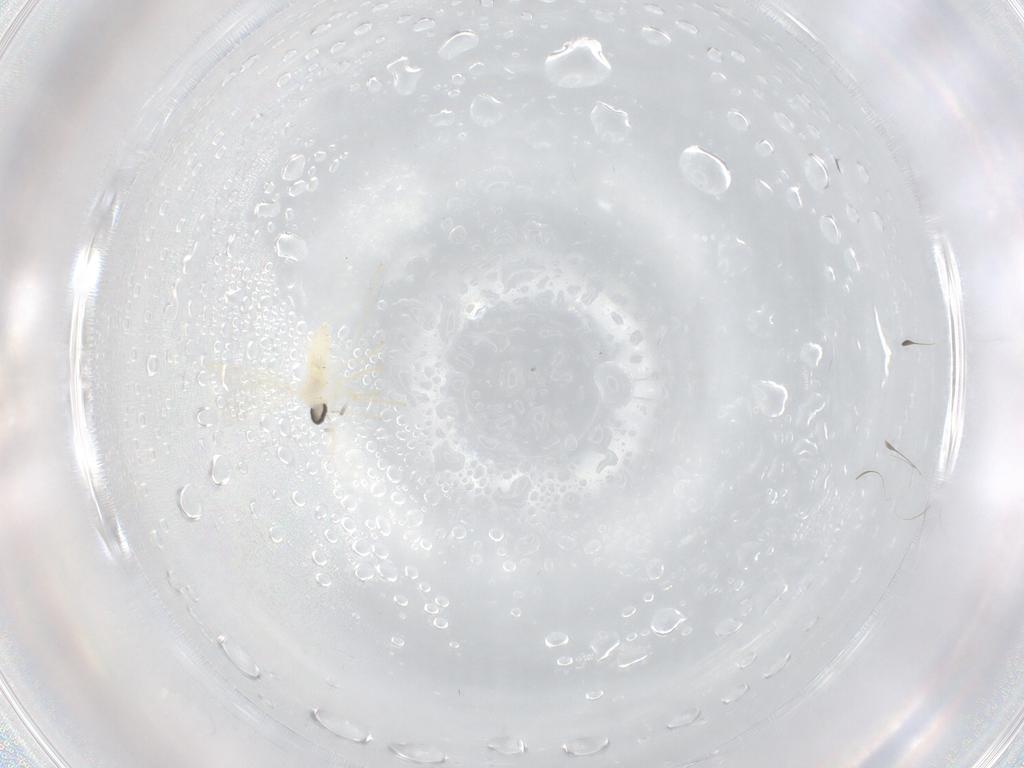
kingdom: Animalia
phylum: Arthropoda
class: Insecta
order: Diptera
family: Cecidomyiidae
